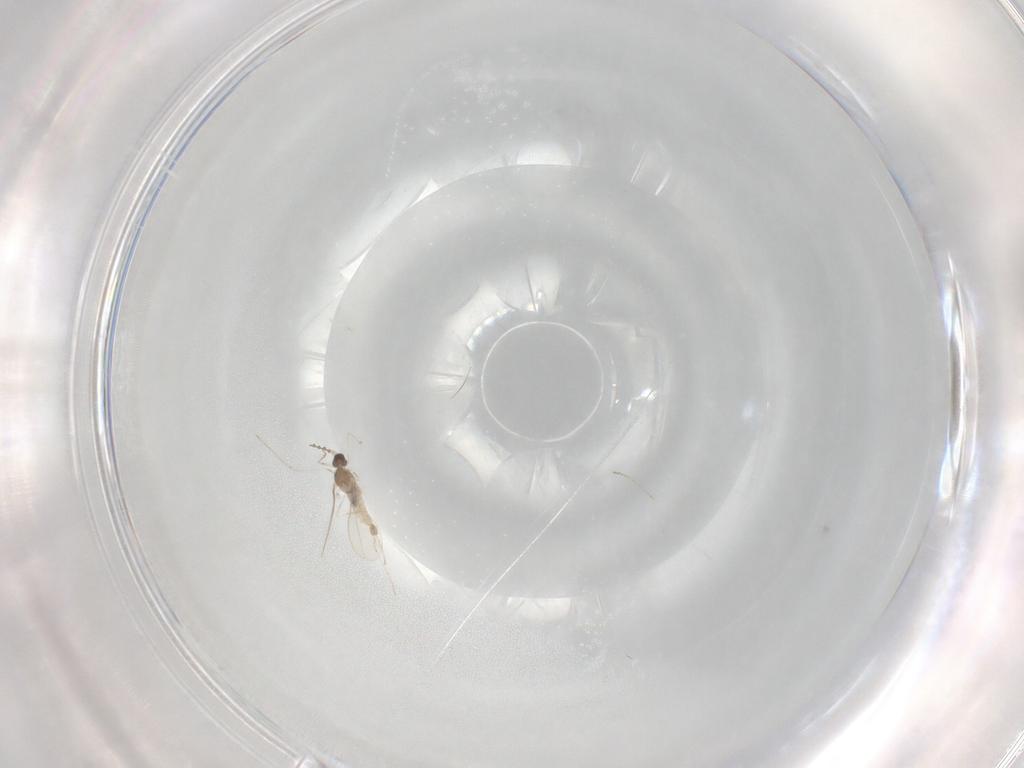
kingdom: Animalia
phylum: Arthropoda
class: Insecta
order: Diptera
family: Cecidomyiidae
